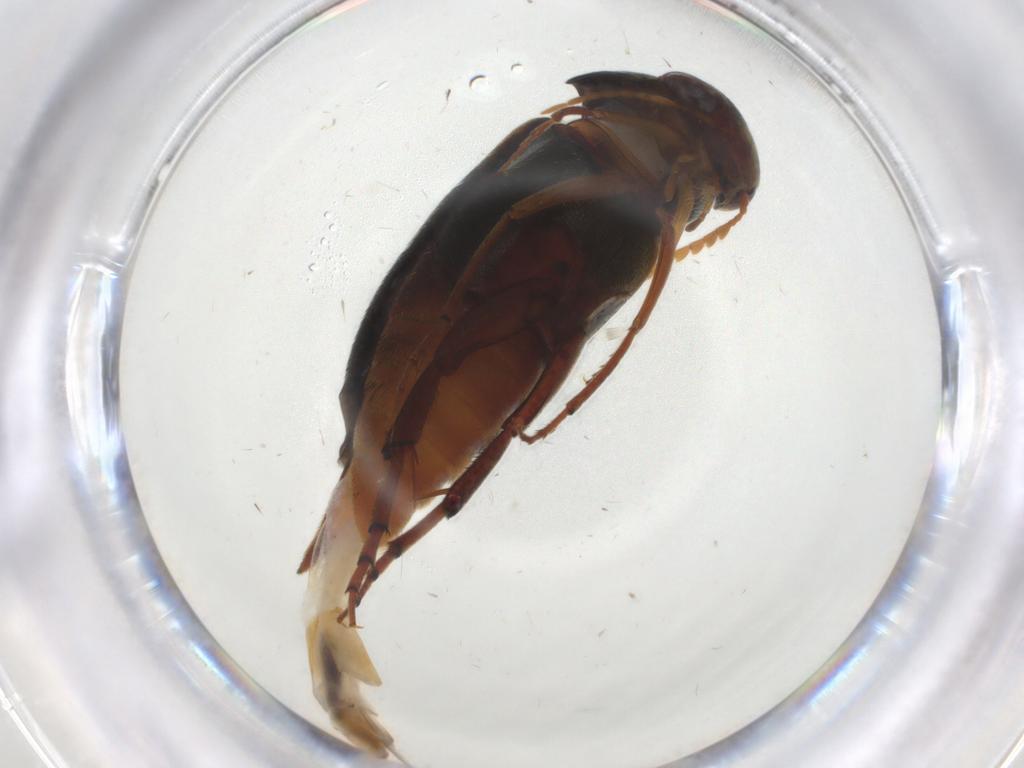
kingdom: Animalia
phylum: Arthropoda
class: Insecta
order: Coleoptera
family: Mordellidae
